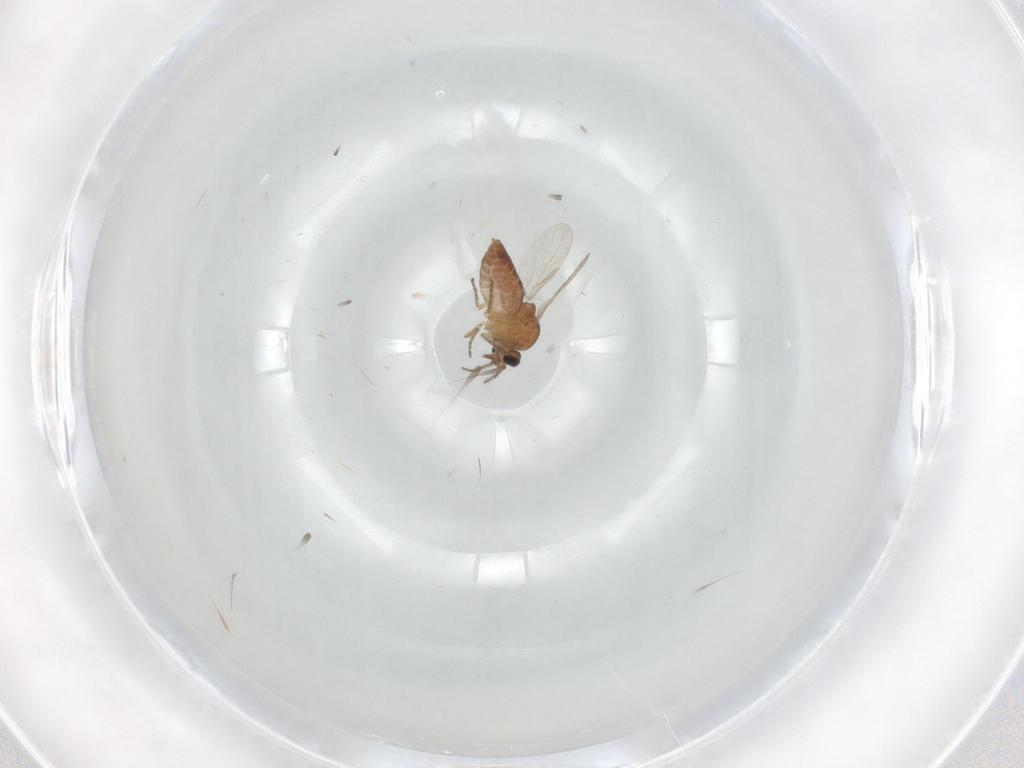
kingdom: Animalia
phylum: Arthropoda
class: Insecta
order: Diptera
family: Ceratopogonidae
